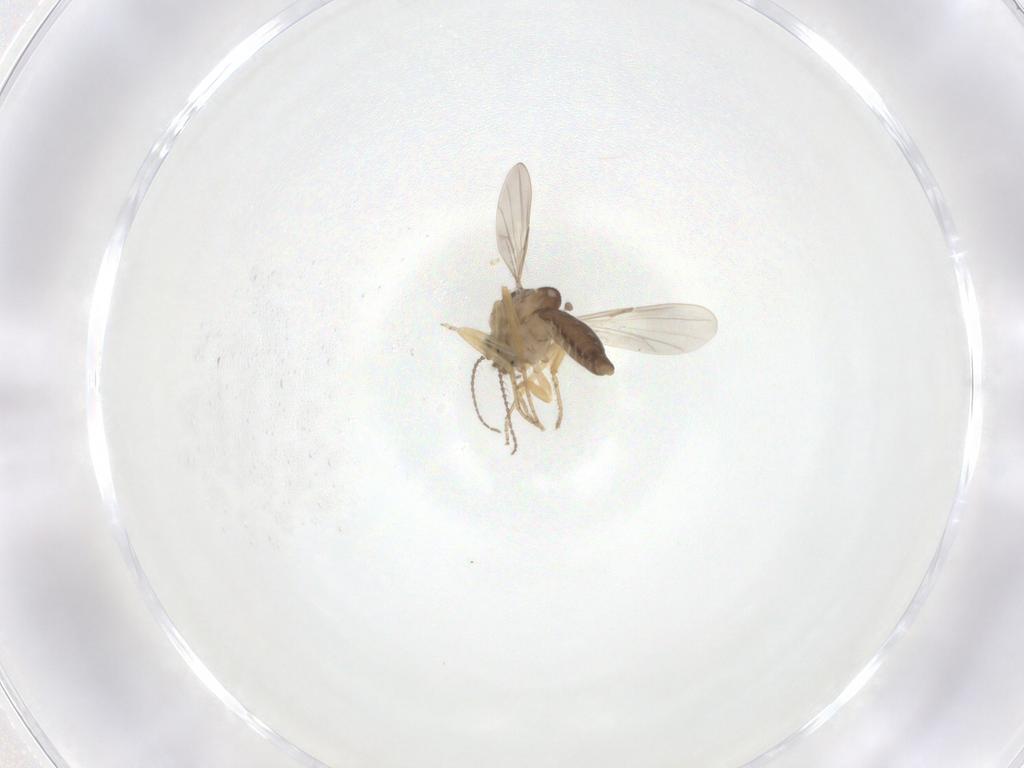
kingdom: Animalia
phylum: Arthropoda
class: Insecta
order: Diptera
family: Ceratopogonidae
